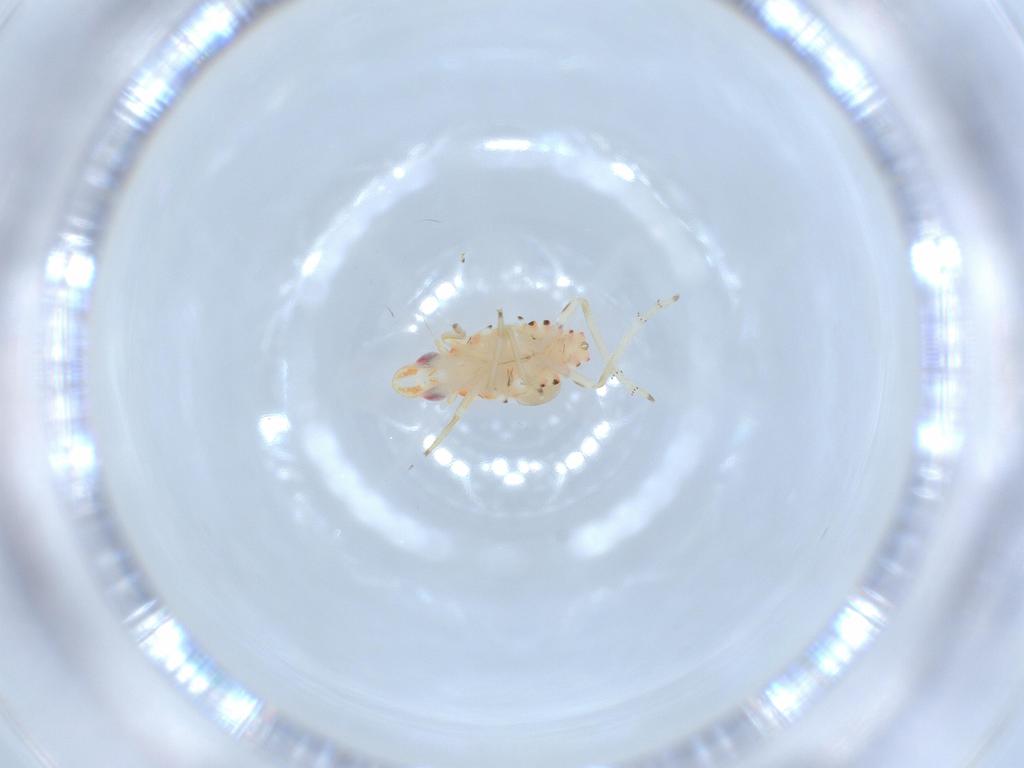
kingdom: Animalia
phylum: Arthropoda
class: Insecta
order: Hemiptera
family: Tropiduchidae
